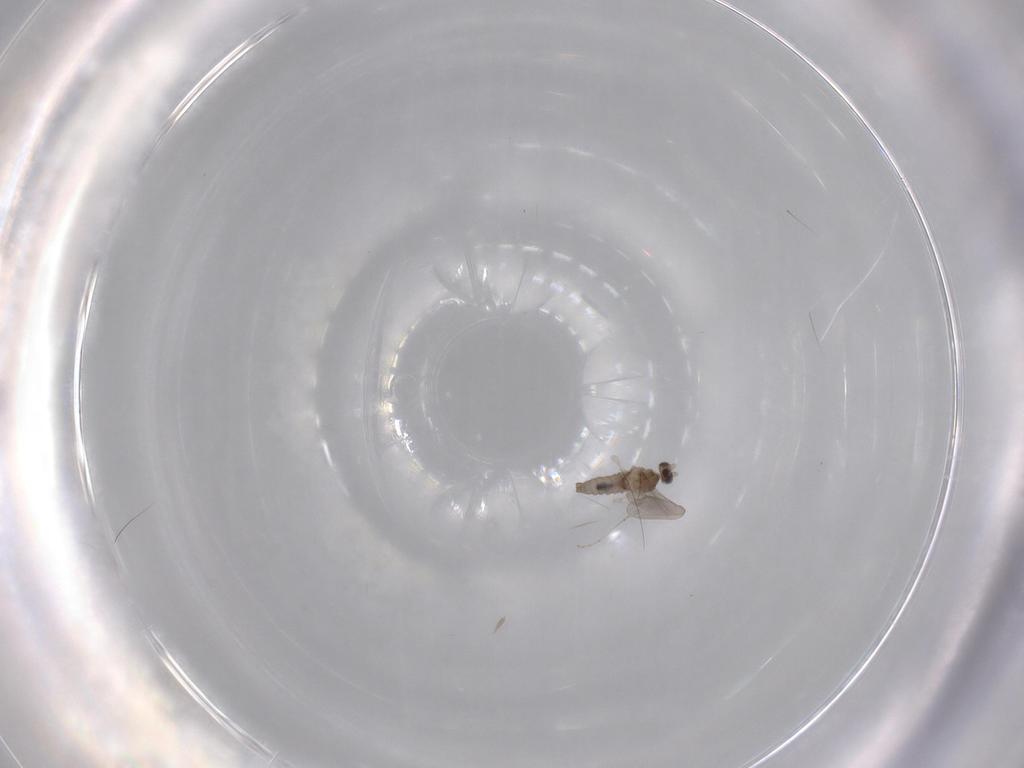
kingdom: Animalia
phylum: Arthropoda
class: Insecta
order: Diptera
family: Cecidomyiidae
